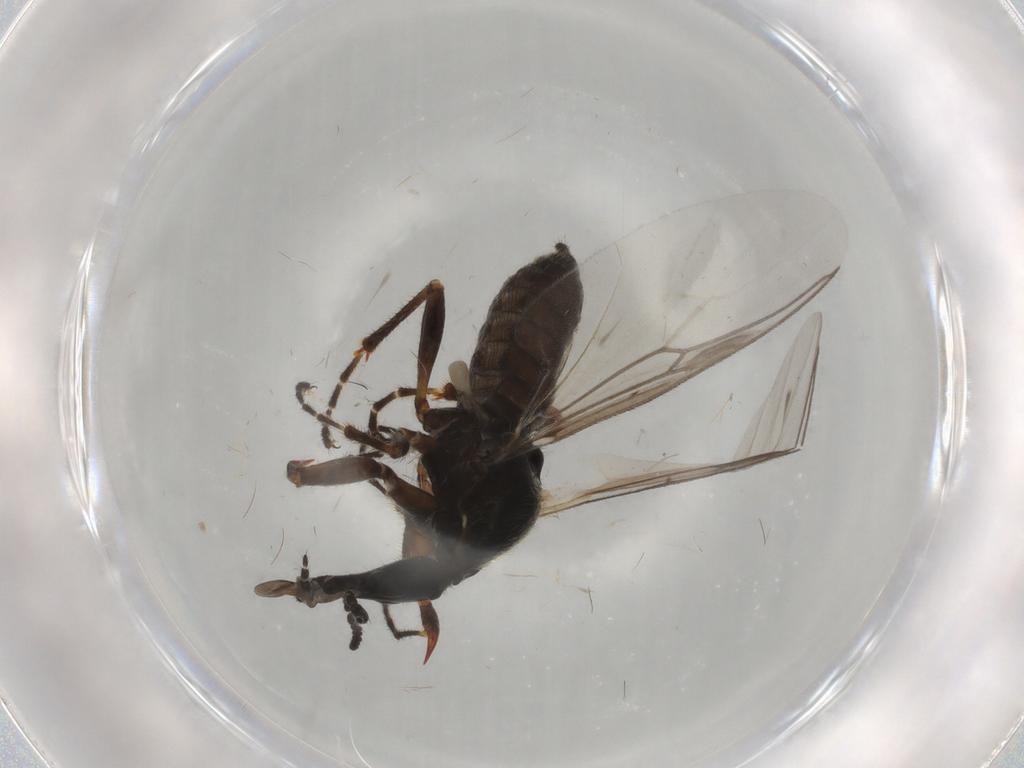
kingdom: Animalia
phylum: Arthropoda
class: Insecta
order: Diptera
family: Bibionidae
